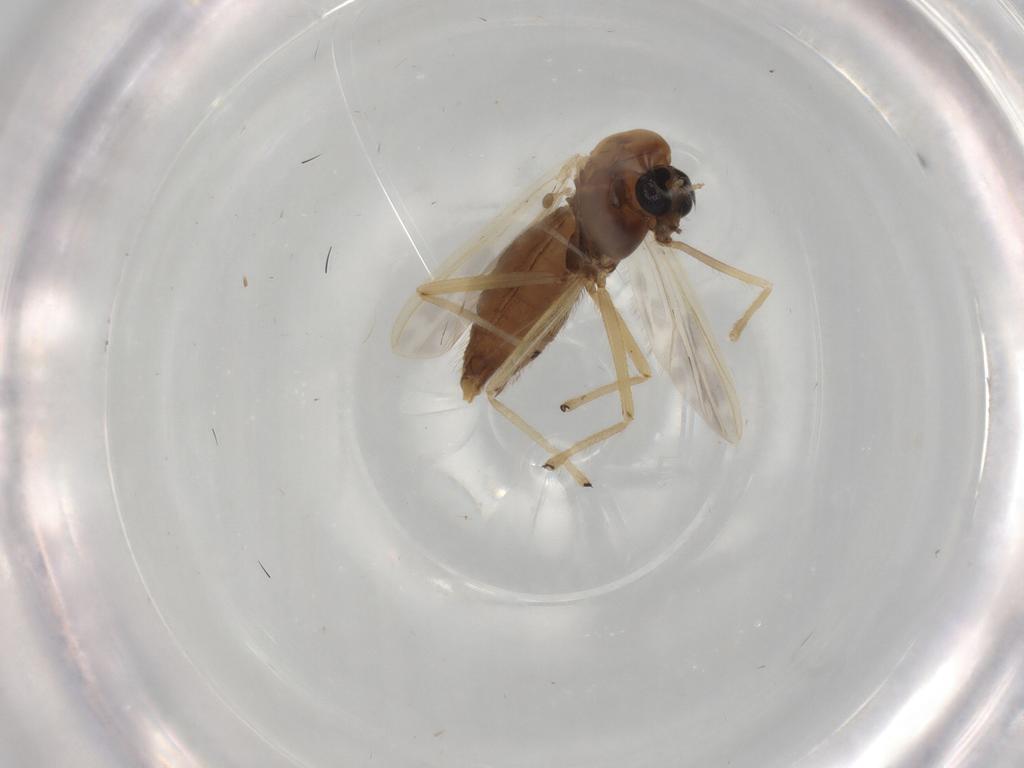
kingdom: Animalia
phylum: Arthropoda
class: Insecta
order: Diptera
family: Chironomidae
